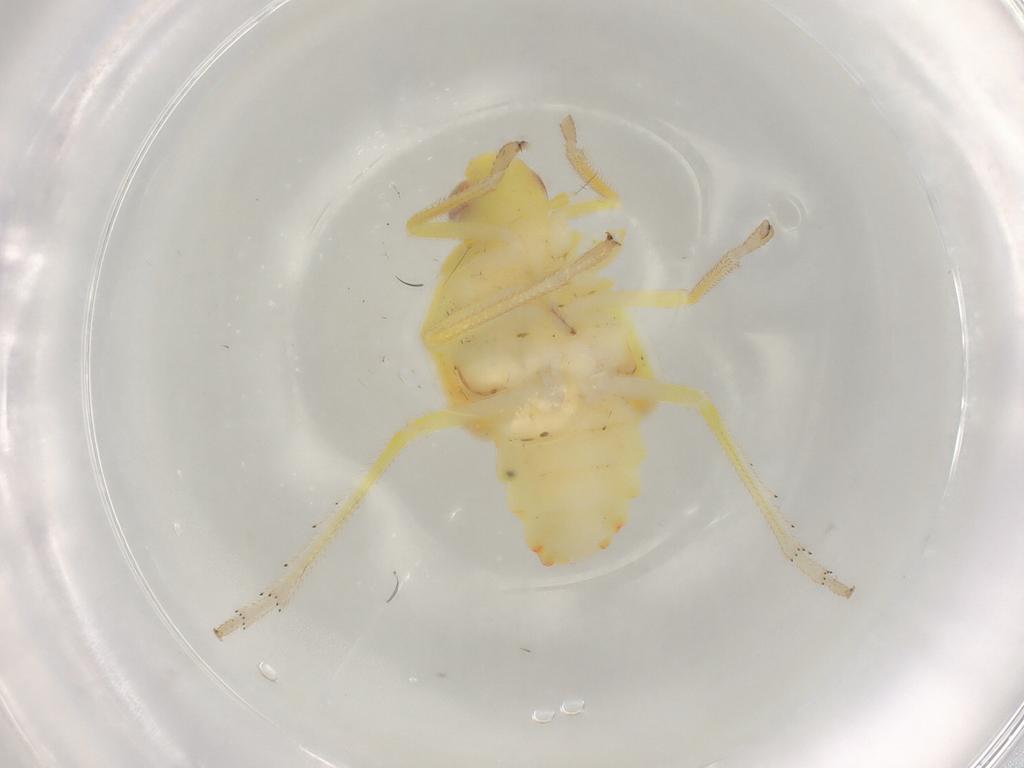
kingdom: Animalia
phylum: Arthropoda
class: Insecta
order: Hemiptera
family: Tropiduchidae
